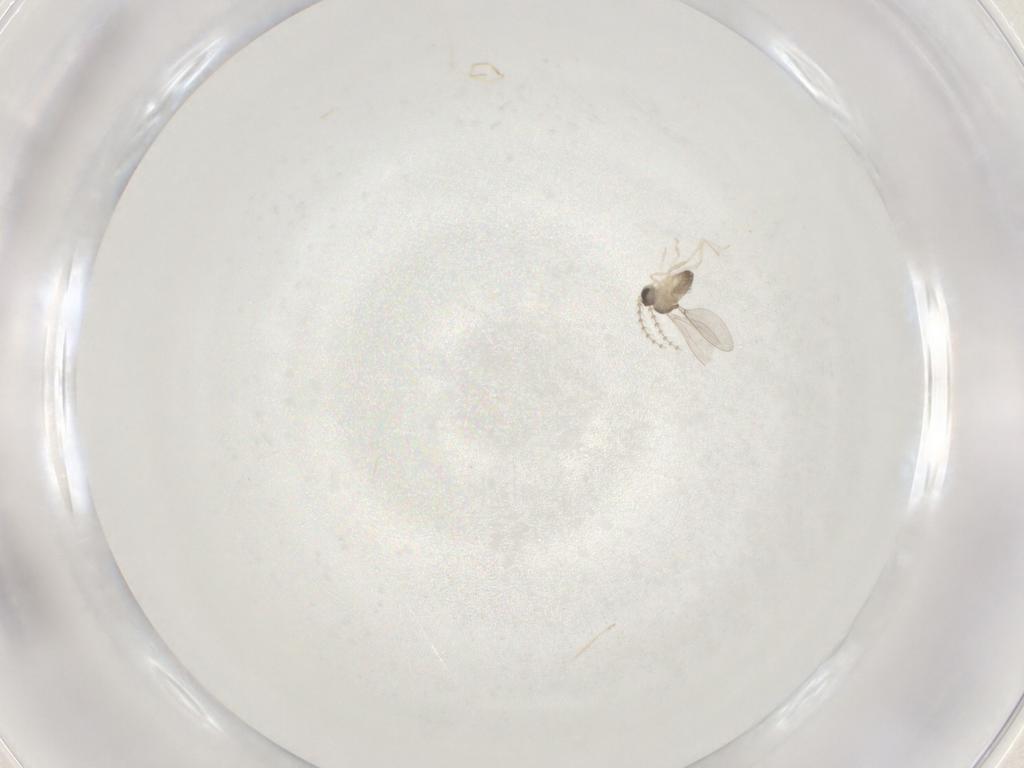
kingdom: Animalia
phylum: Arthropoda
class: Insecta
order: Diptera
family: Cecidomyiidae
